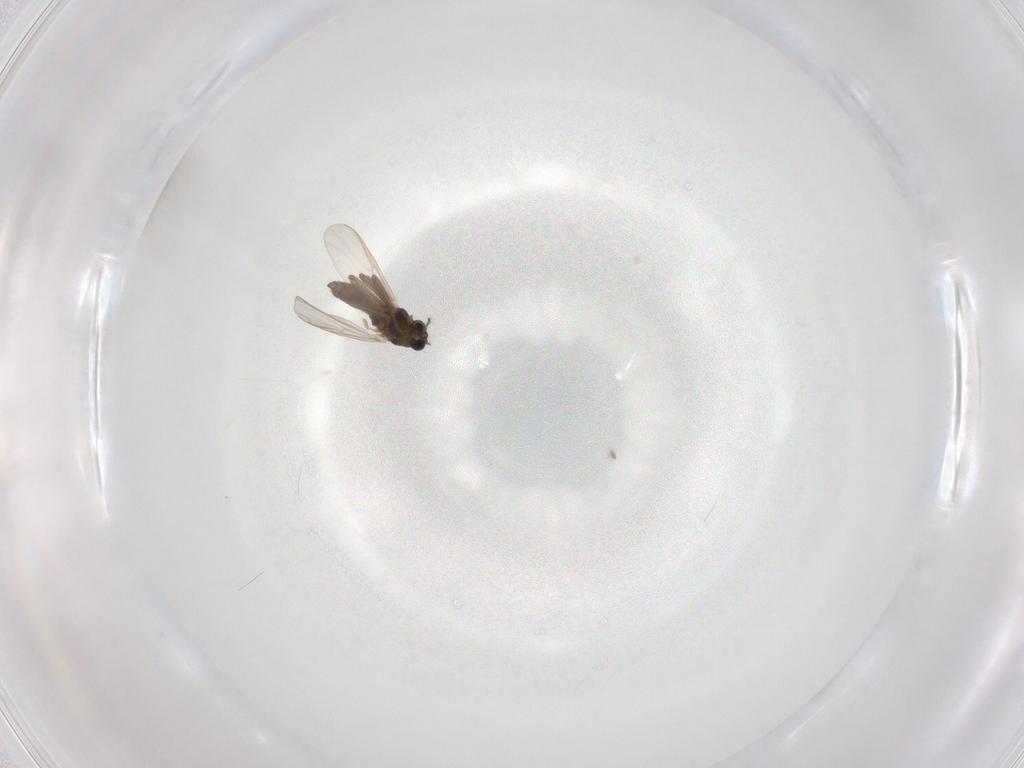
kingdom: Animalia
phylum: Arthropoda
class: Insecta
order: Diptera
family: Chironomidae
